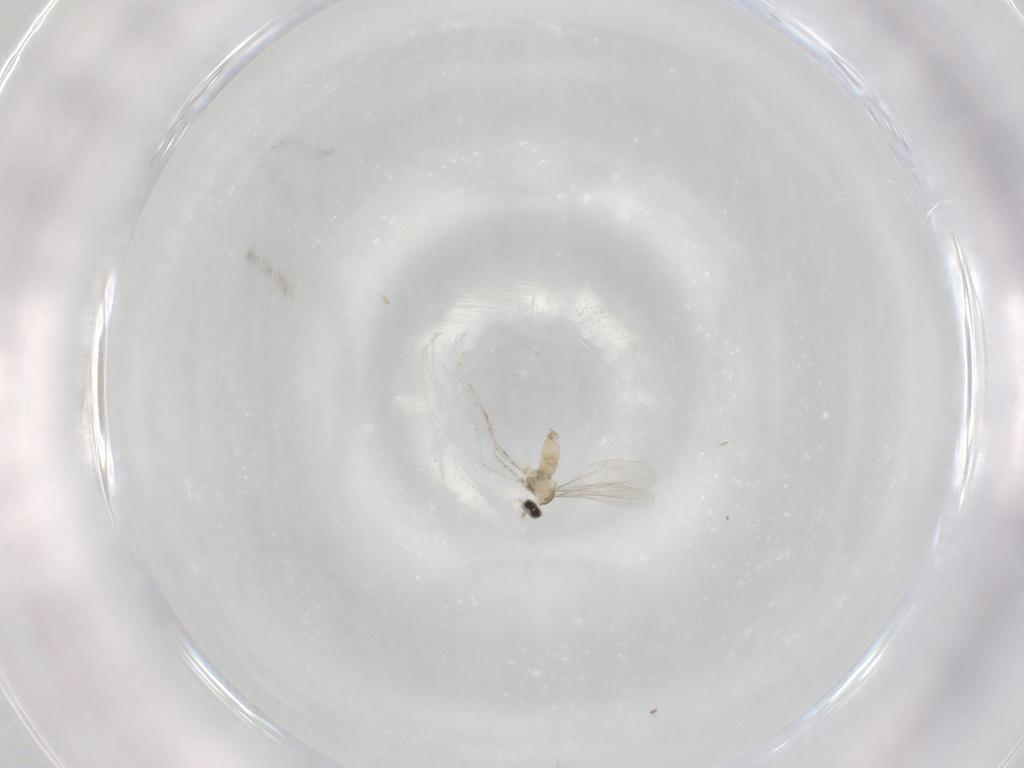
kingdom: Animalia
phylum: Arthropoda
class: Insecta
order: Diptera
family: Cecidomyiidae
